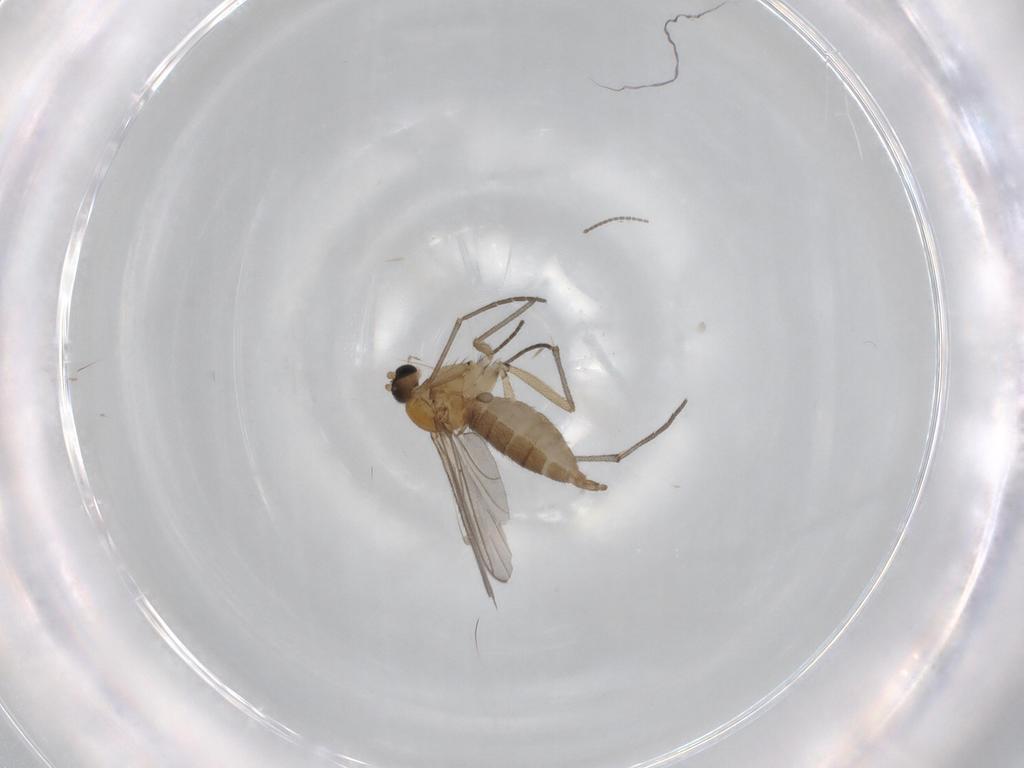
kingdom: Animalia
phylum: Arthropoda
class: Insecta
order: Diptera
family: Sciaridae
